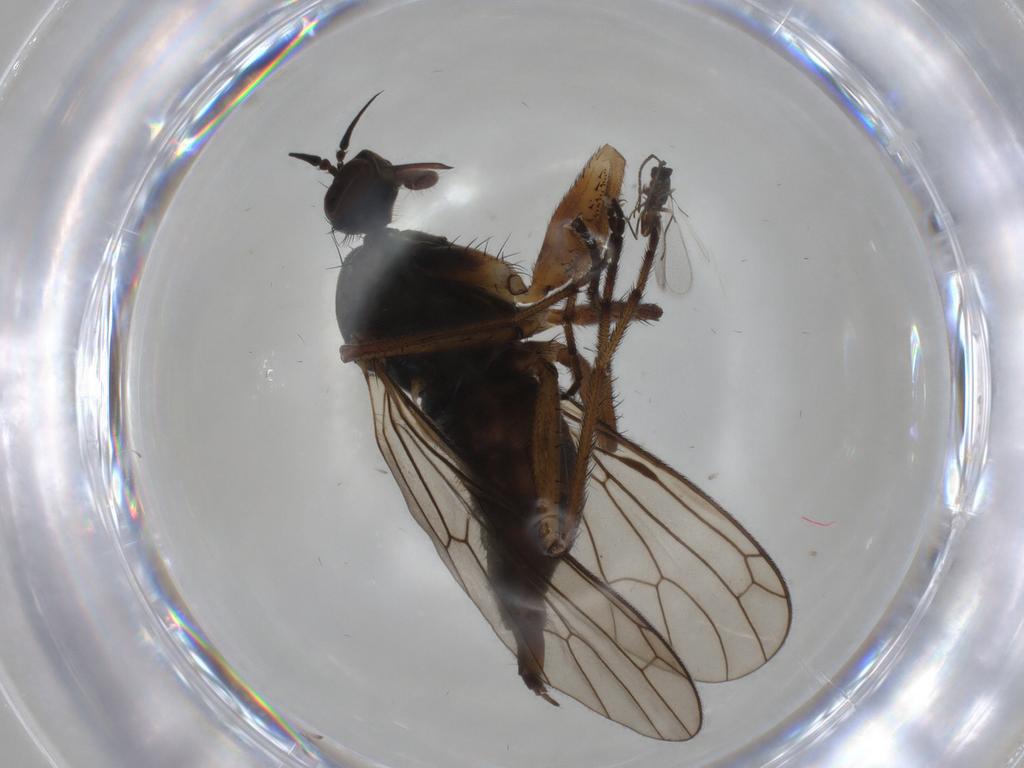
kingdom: Animalia
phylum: Arthropoda
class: Insecta
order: Diptera
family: Empididae
